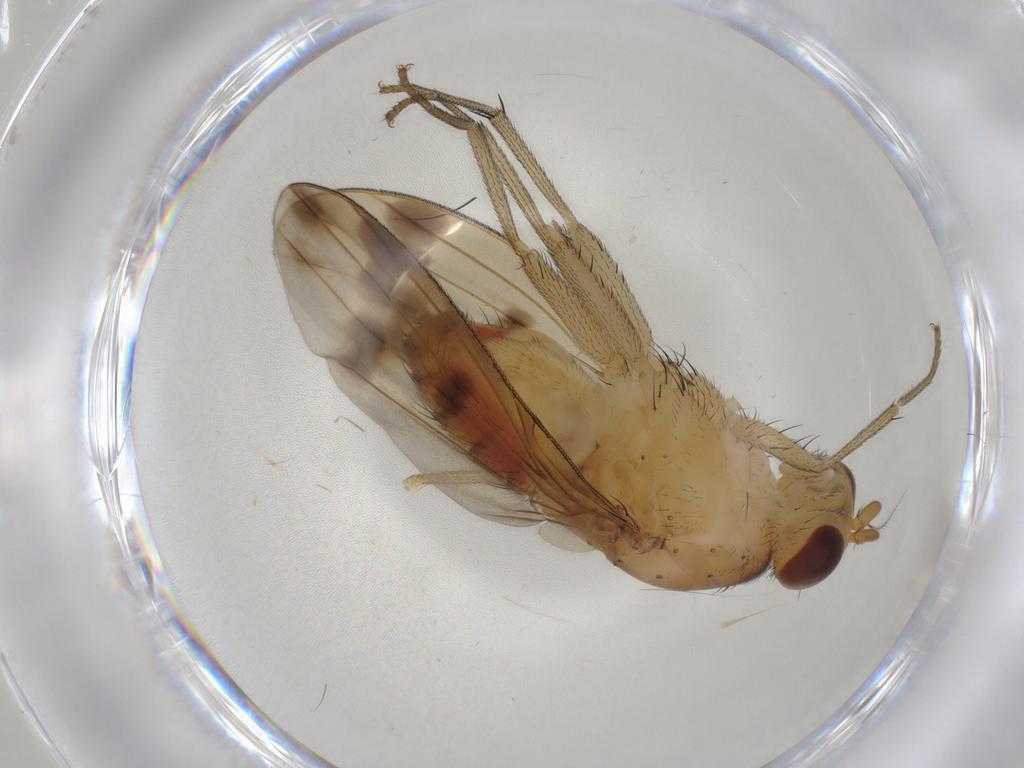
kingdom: Animalia
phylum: Arthropoda
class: Insecta
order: Diptera
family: Lauxaniidae
